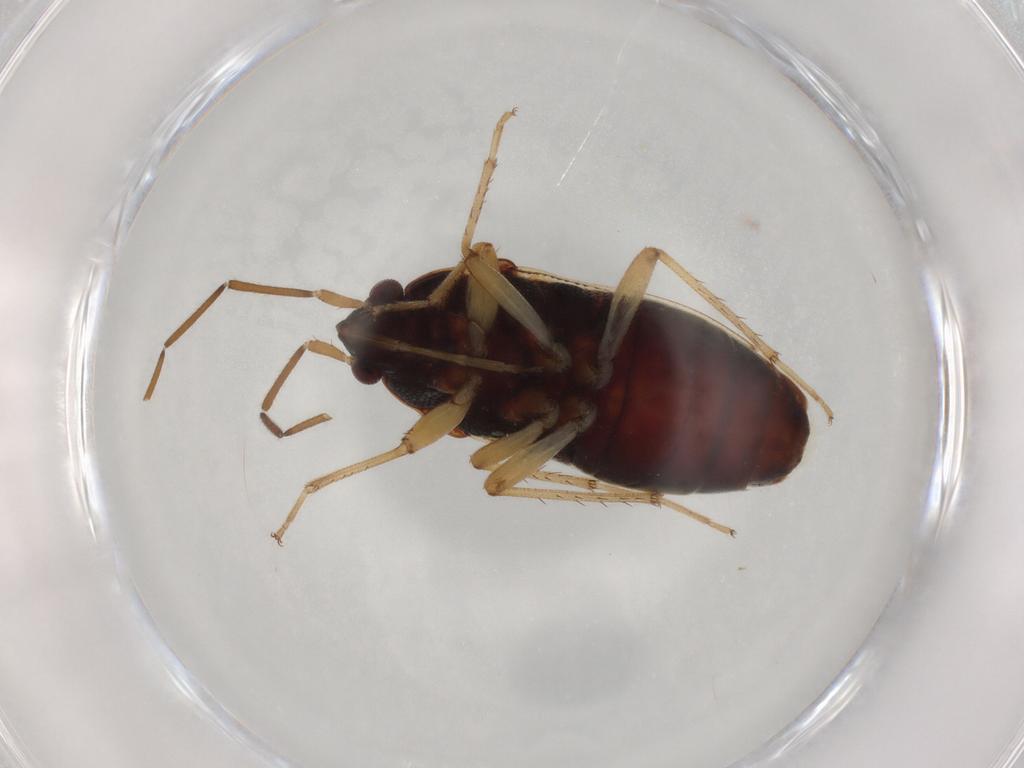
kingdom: Animalia
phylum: Arthropoda
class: Insecta
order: Hemiptera
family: Rhyparochromidae
